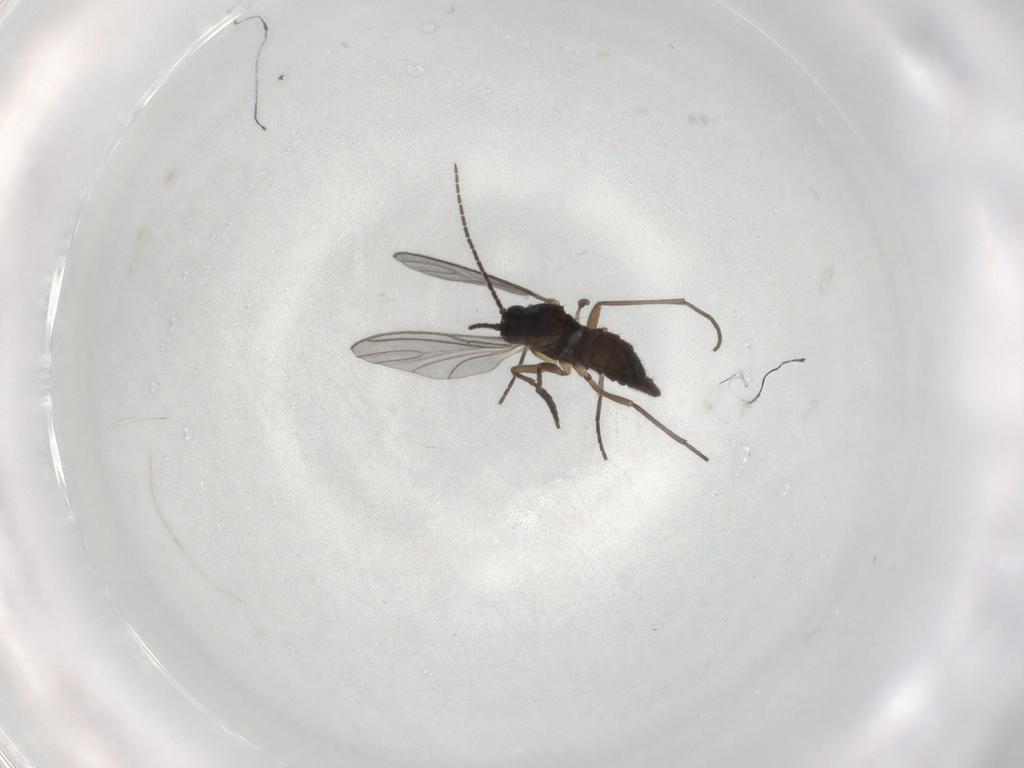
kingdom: Animalia
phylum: Arthropoda
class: Insecta
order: Diptera
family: Sciaridae
